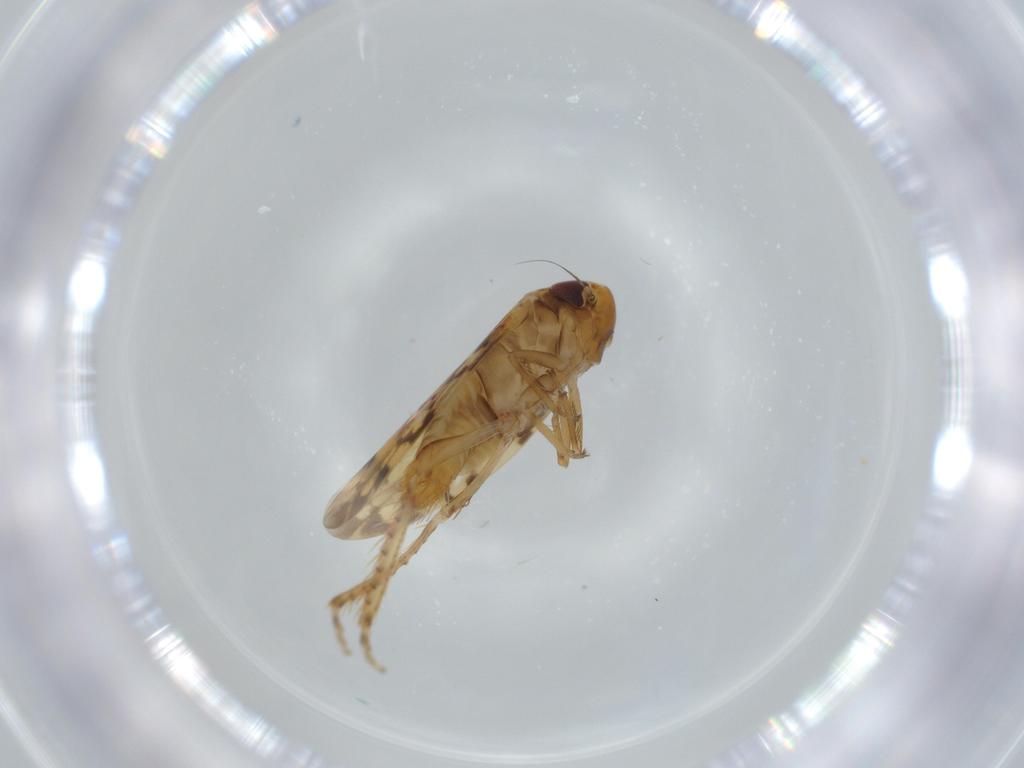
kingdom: Animalia
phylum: Arthropoda
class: Insecta
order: Hemiptera
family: Cicadellidae
